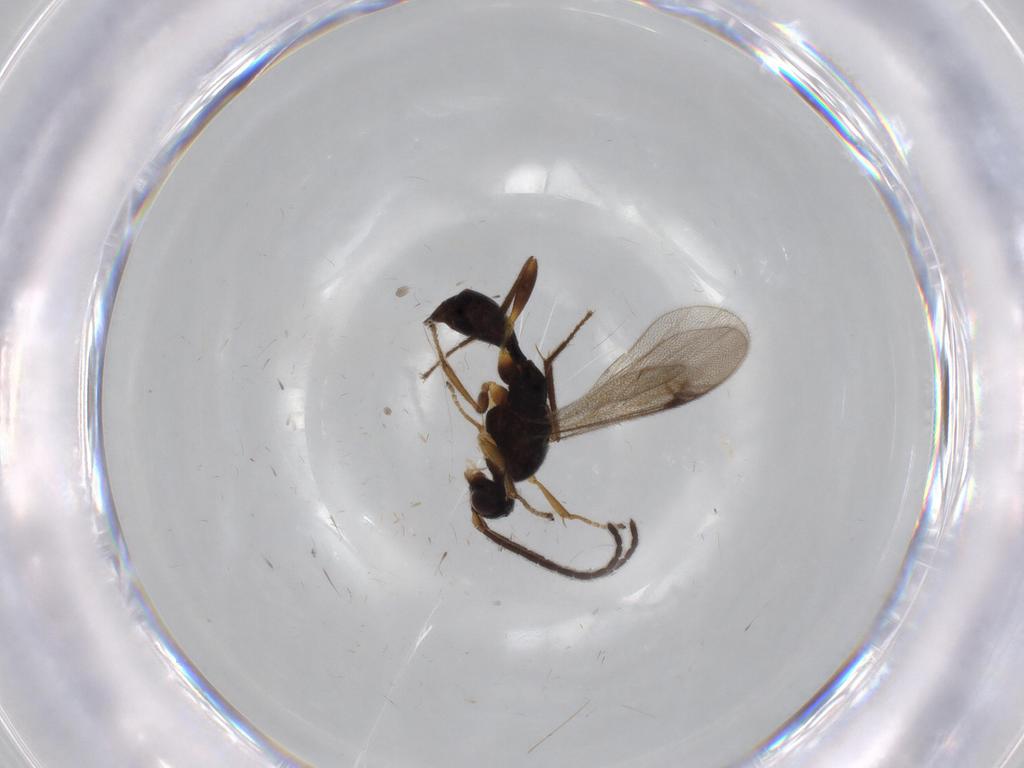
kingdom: Animalia
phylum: Arthropoda
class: Insecta
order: Hymenoptera
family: Proctotrupidae
